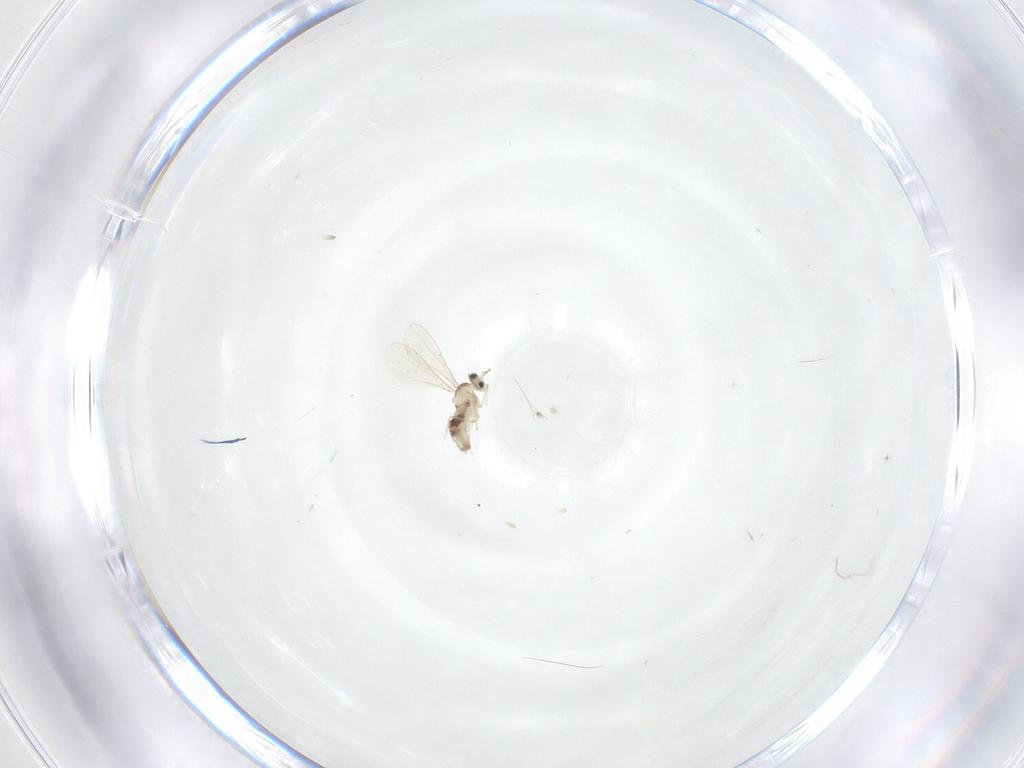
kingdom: Animalia
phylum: Arthropoda
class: Insecta
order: Diptera
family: Cecidomyiidae
